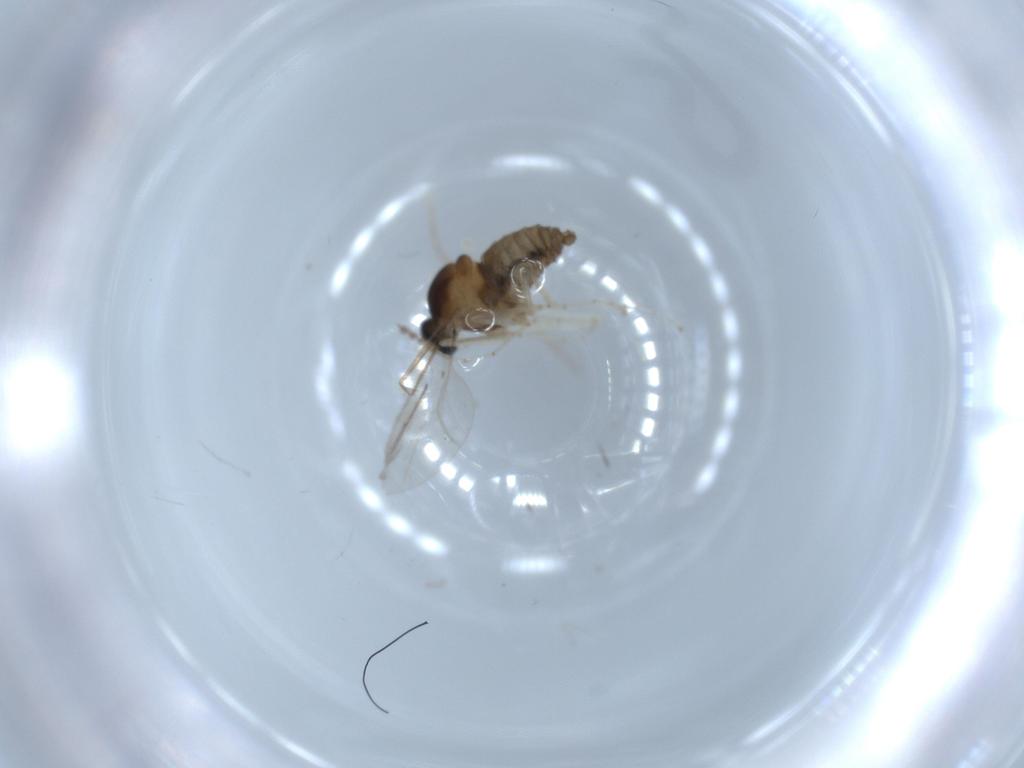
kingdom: Animalia
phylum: Arthropoda
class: Insecta
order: Diptera
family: Cecidomyiidae
